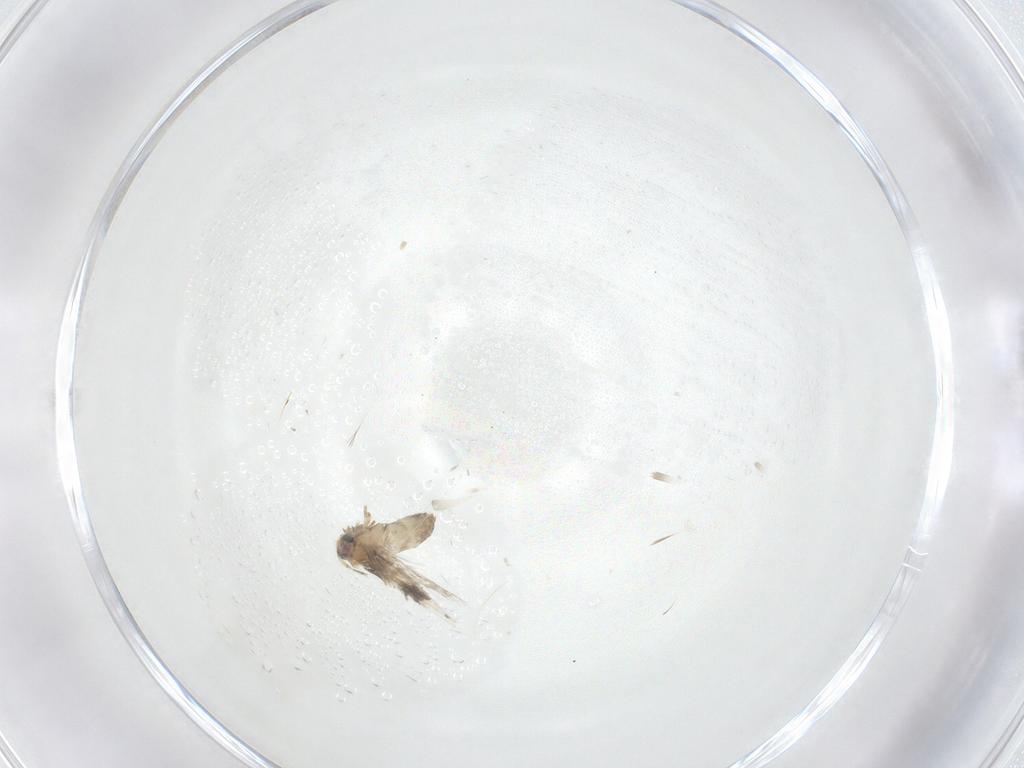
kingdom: Animalia
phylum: Arthropoda
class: Insecta
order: Lepidoptera
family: Nepticulidae
